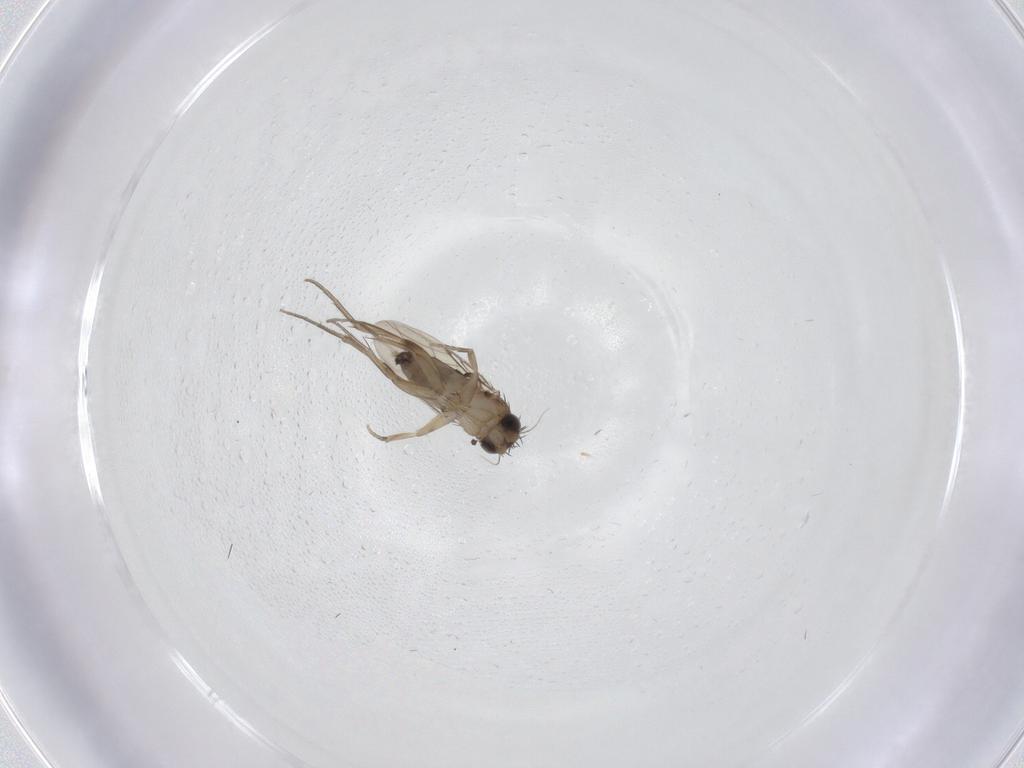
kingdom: Animalia
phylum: Arthropoda
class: Insecta
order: Diptera
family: Phoridae
